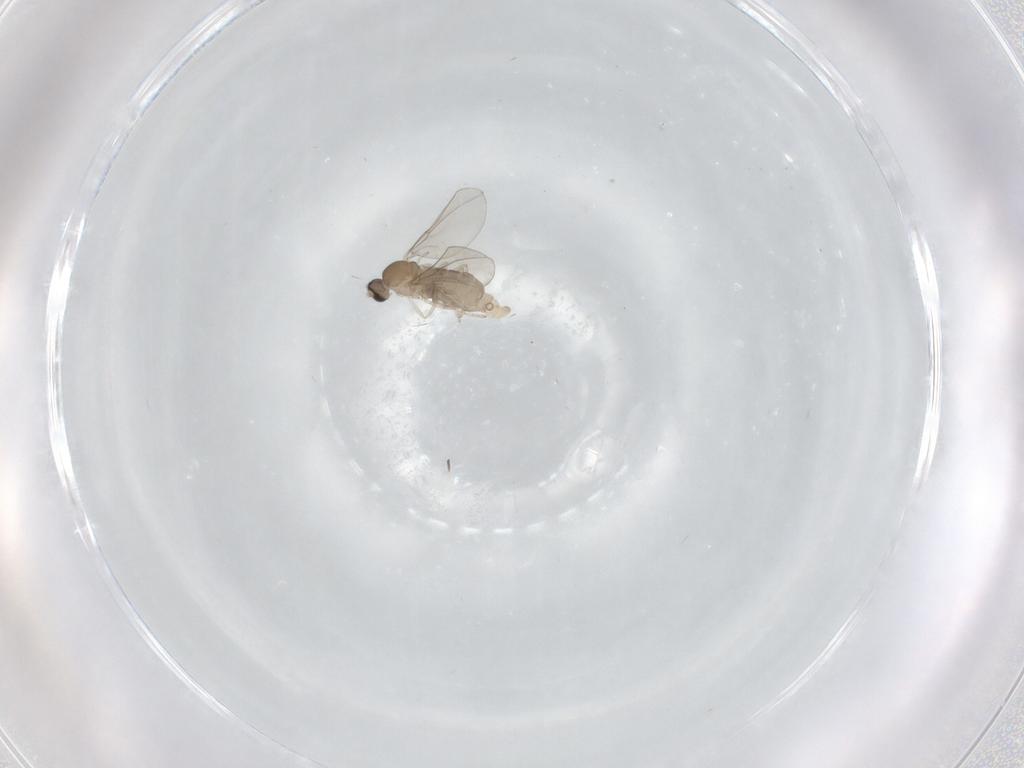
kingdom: Animalia
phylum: Arthropoda
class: Insecta
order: Diptera
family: Cecidomyiidae
